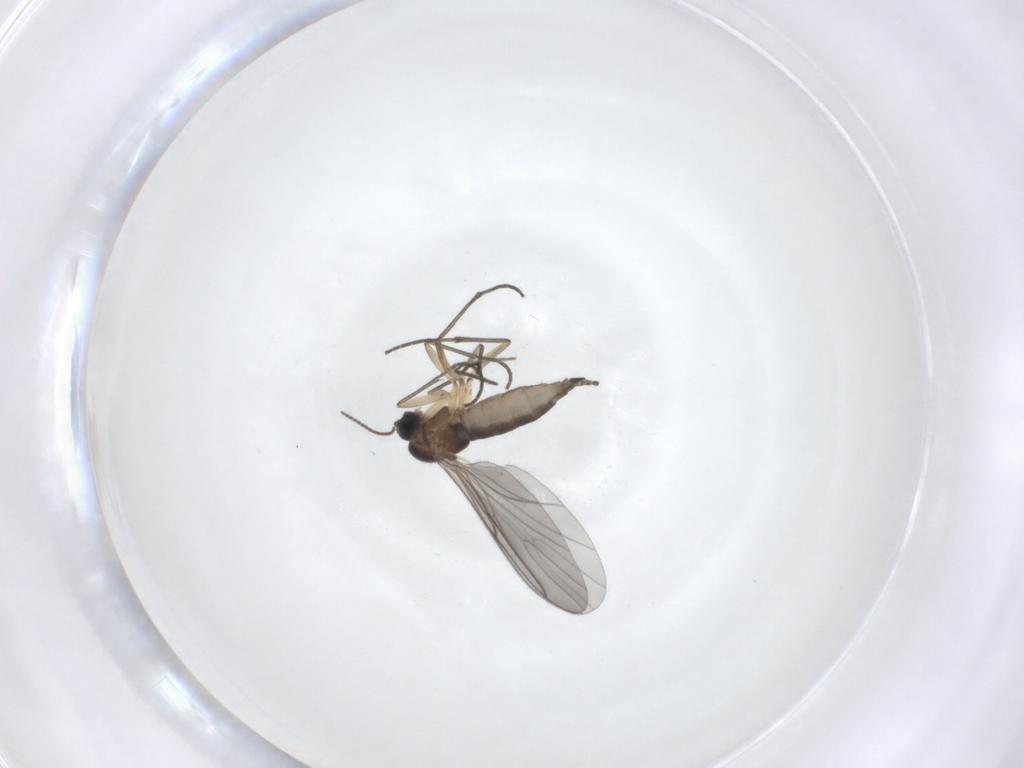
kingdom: Animalia
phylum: Arthropoda
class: Insecta
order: Diptera
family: Sciaridae
